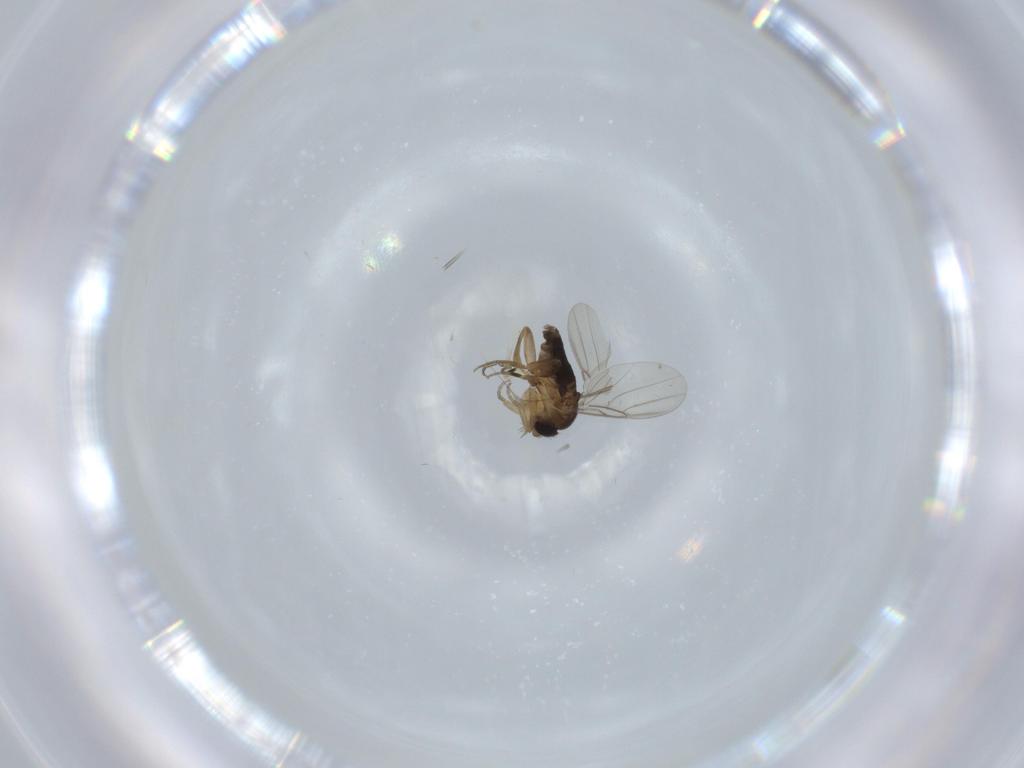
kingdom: Animalia
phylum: Arthropoda
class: Insecta
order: Diptera
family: Phoridae
